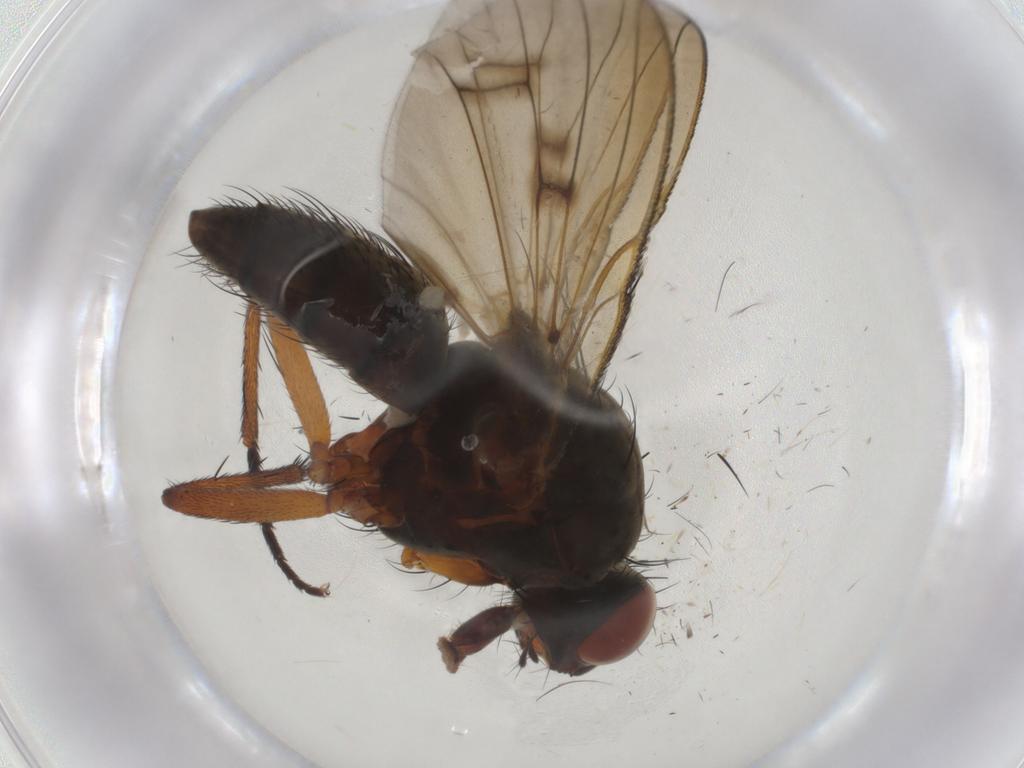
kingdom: Animalia
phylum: Arthropoda
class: Insecta
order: Diptera
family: Anthomyiidae
